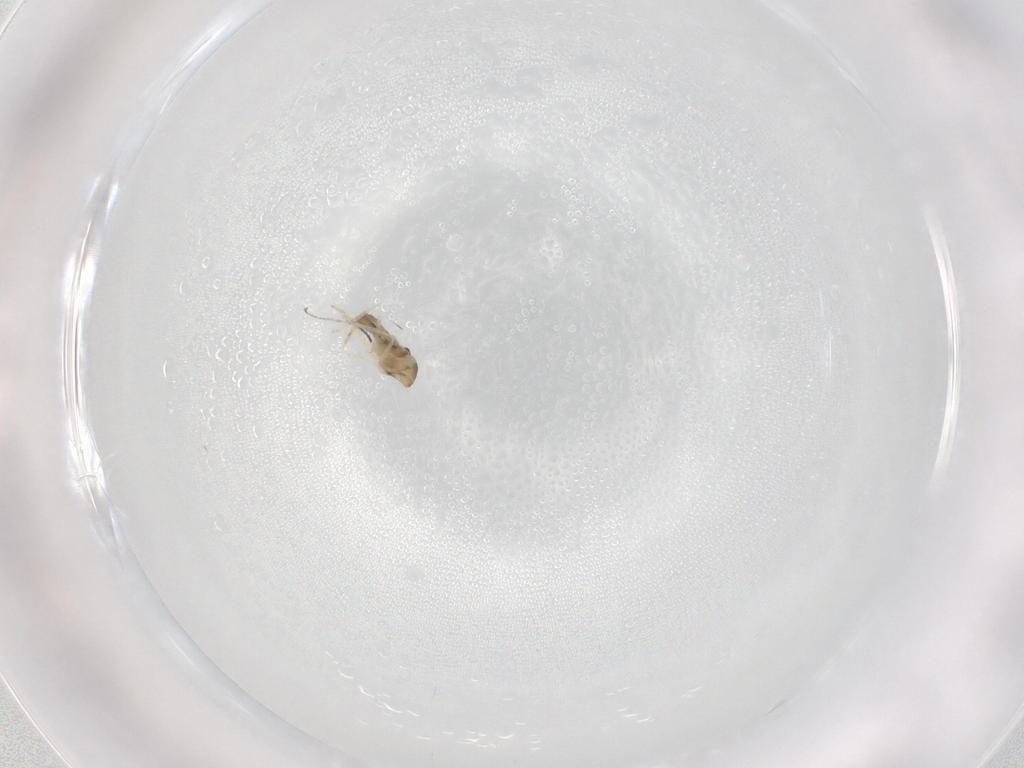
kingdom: Animalia
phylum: Arthropoda
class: Insecta
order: Diptera
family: Cecidomyiidae
